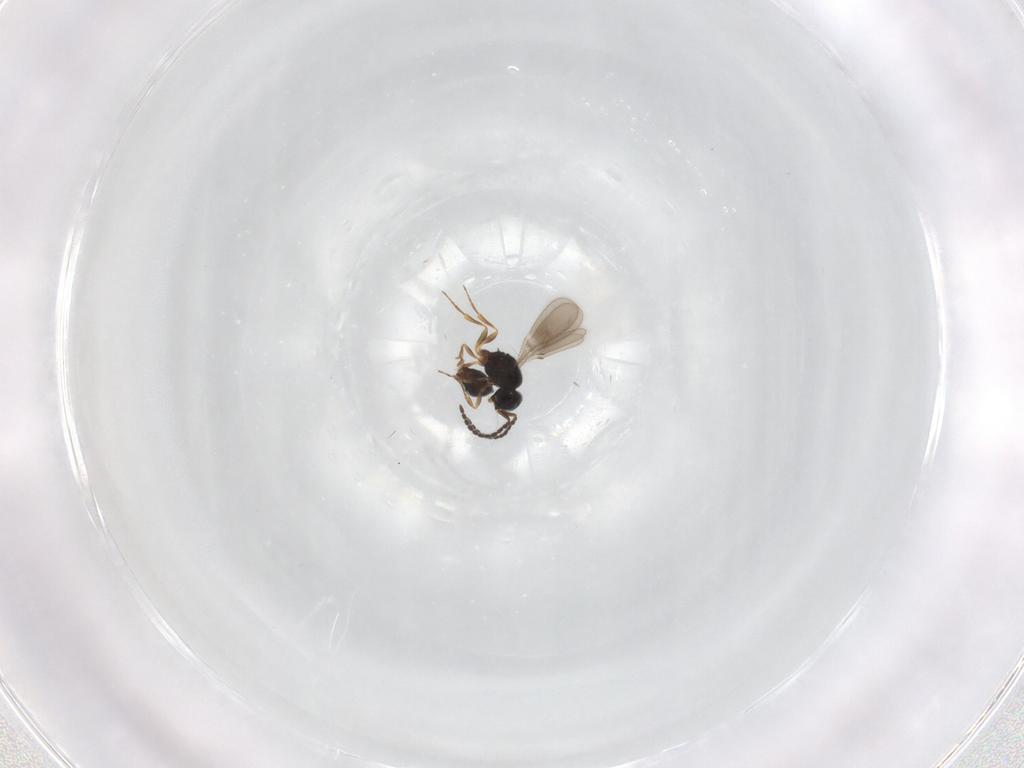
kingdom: Animalia
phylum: Arthropoda
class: Insecta
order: Hymenoptera
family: Scelionidae
